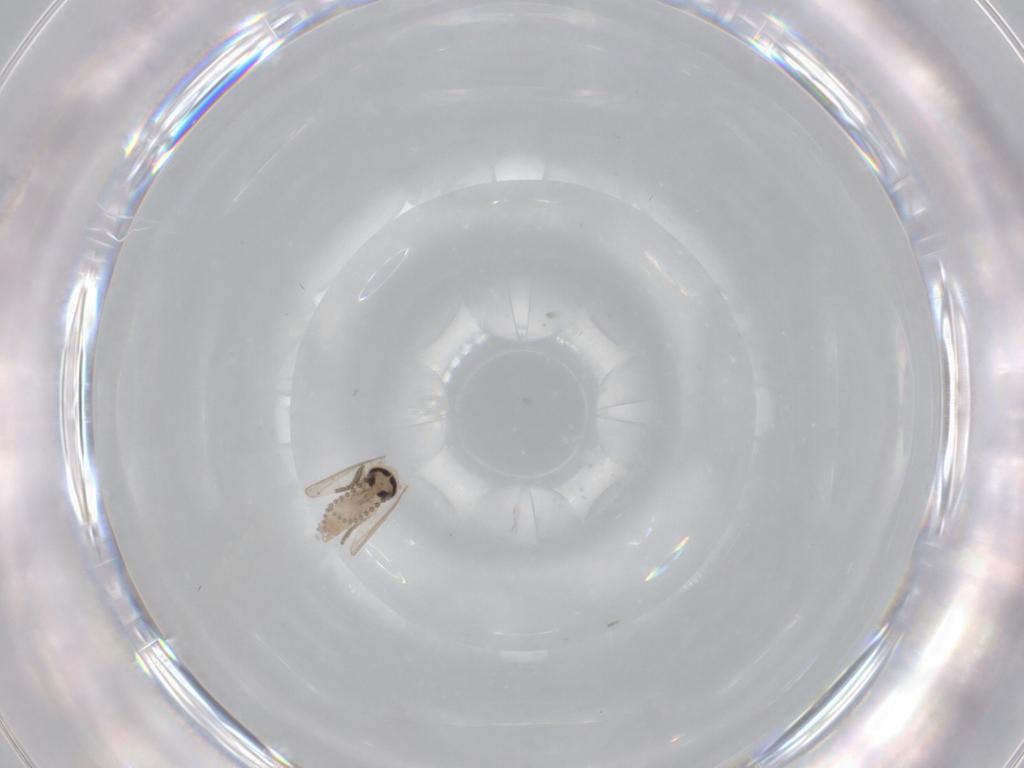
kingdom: Animalia
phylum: Arthropoda
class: Insecta
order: Diptera
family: Psychodidae
